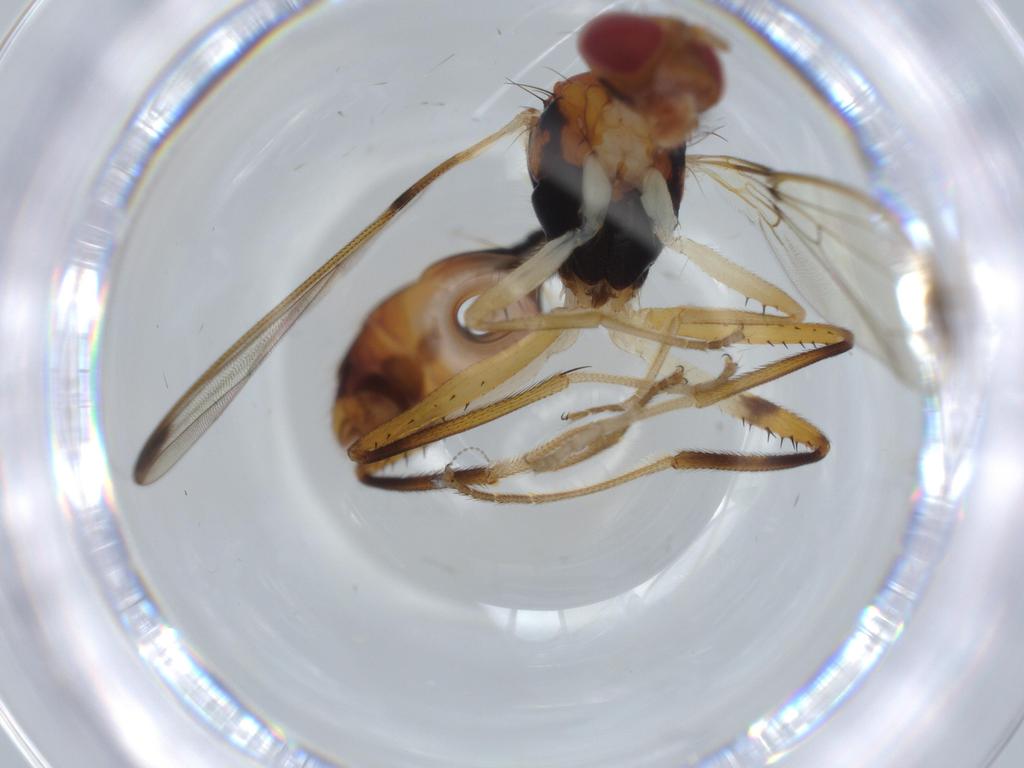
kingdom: Animalia
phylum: Arthropoda
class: Insecta
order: Diptera
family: Richardiidae
